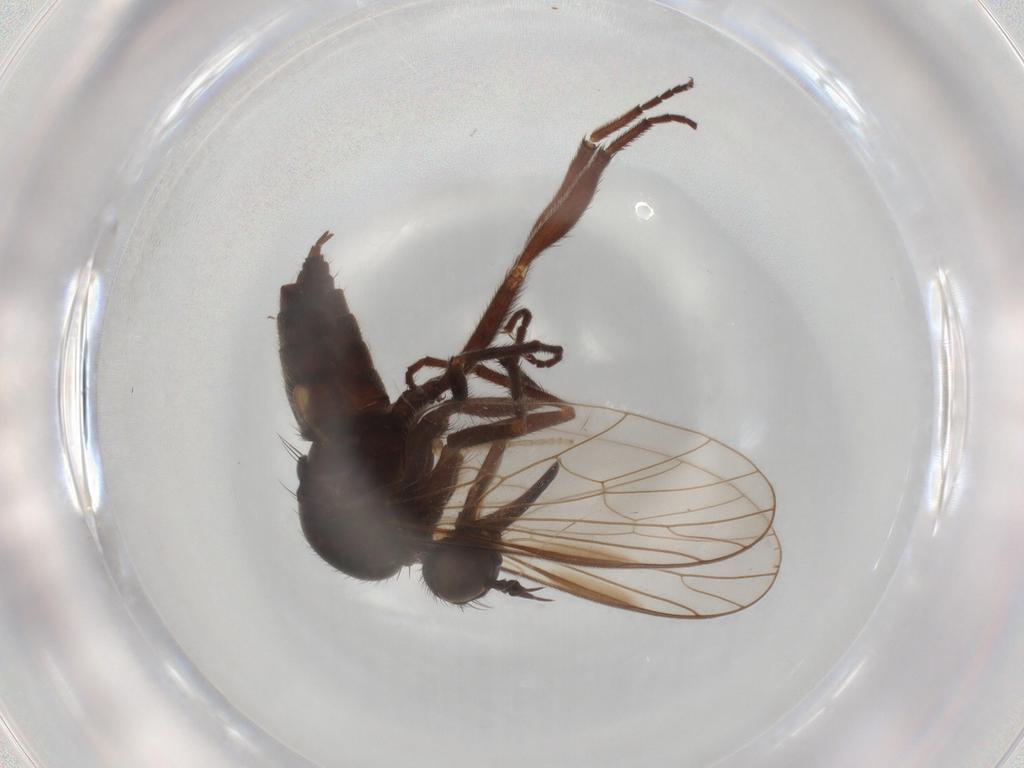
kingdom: Animalia
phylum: Arthropoda
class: Insecta
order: Diptera
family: Empididae
